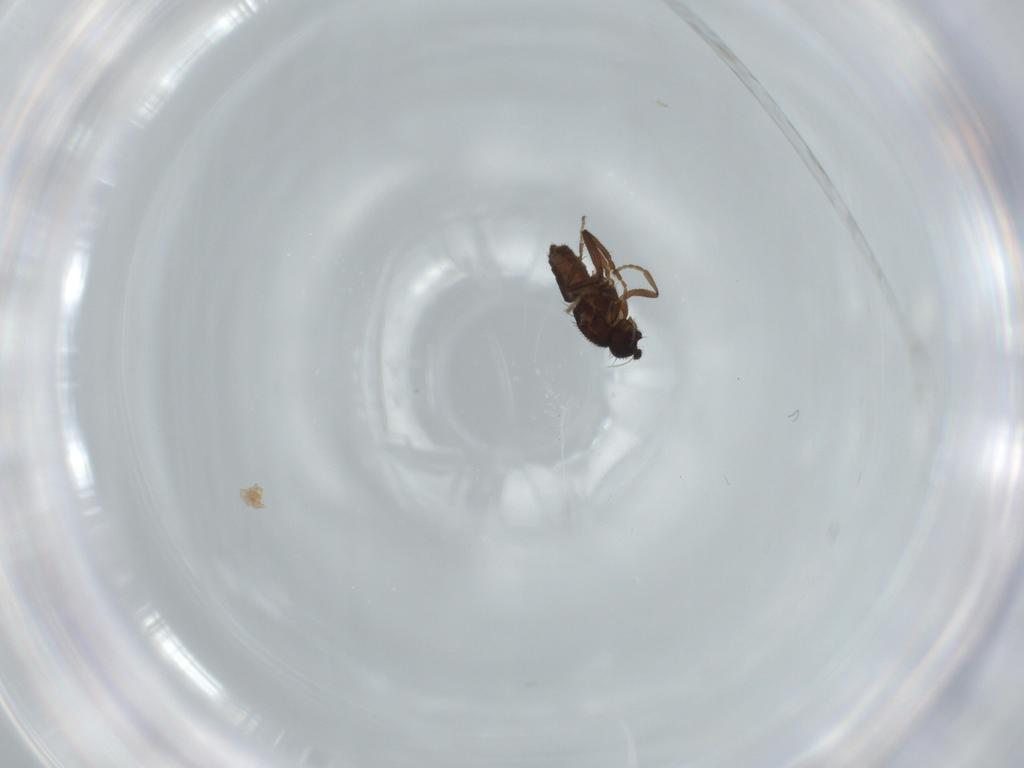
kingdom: Animalia
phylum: Arthropoda
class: Insecta
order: Diptera
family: Sphaeroceridae
